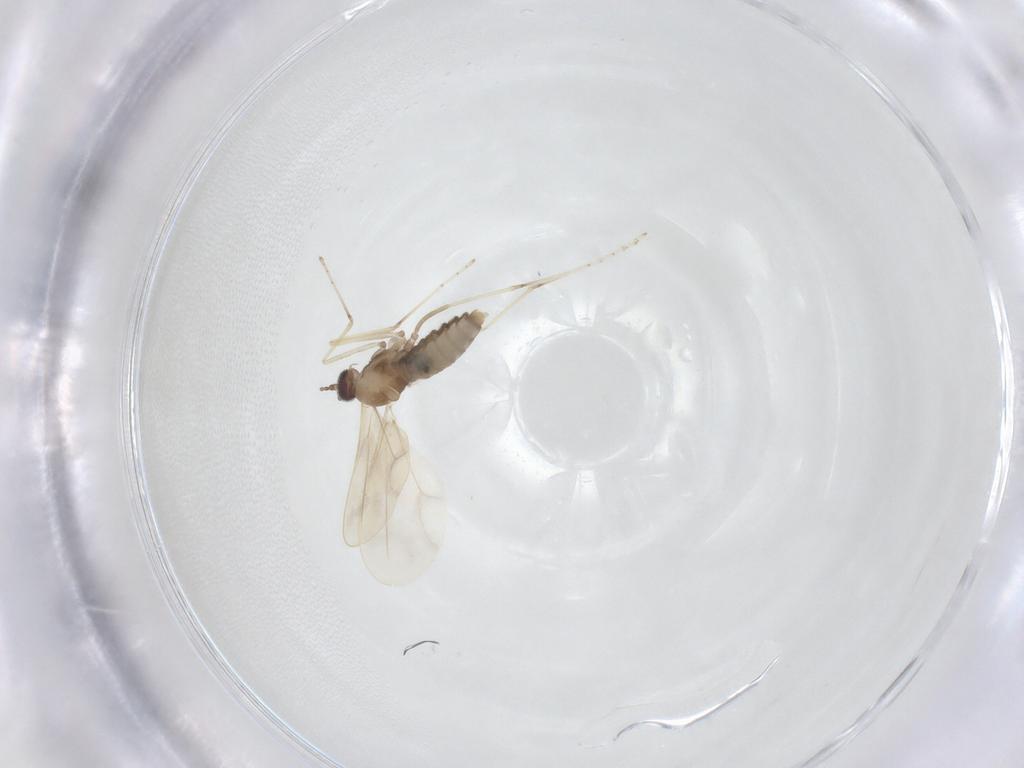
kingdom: Animalia
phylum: Arthropoda
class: Insecta
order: Diptera
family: Cecidomyiidae
